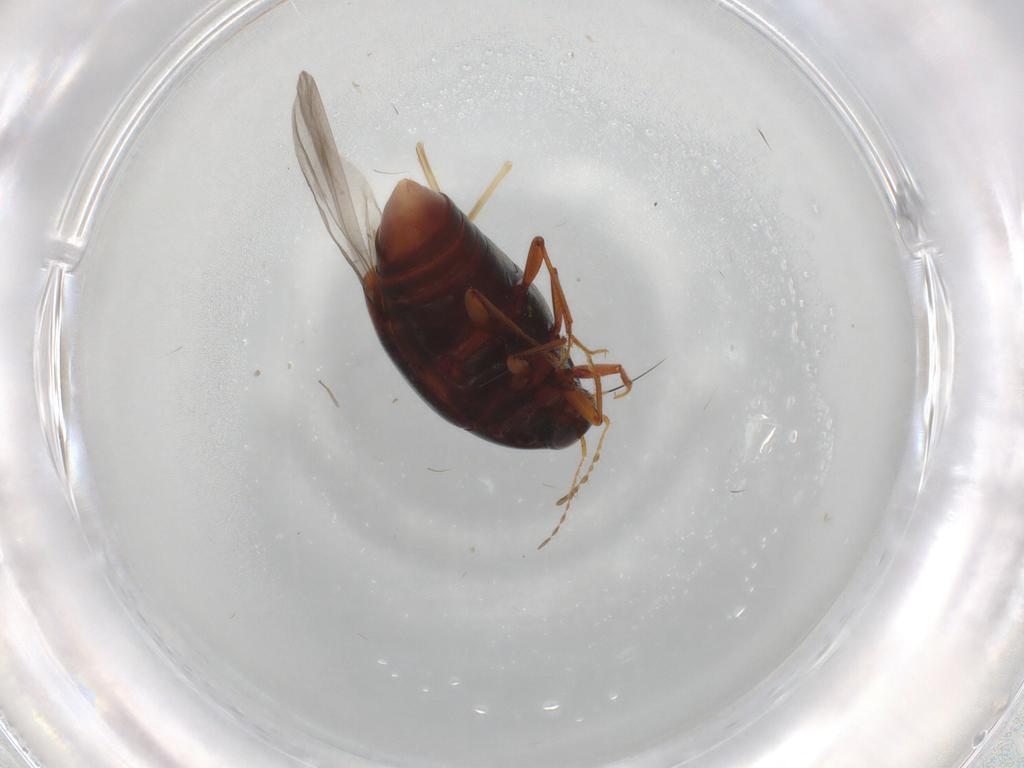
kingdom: Animalia
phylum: Arthropoda
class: Insecta
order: Coleoptera
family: Staphylinidae
